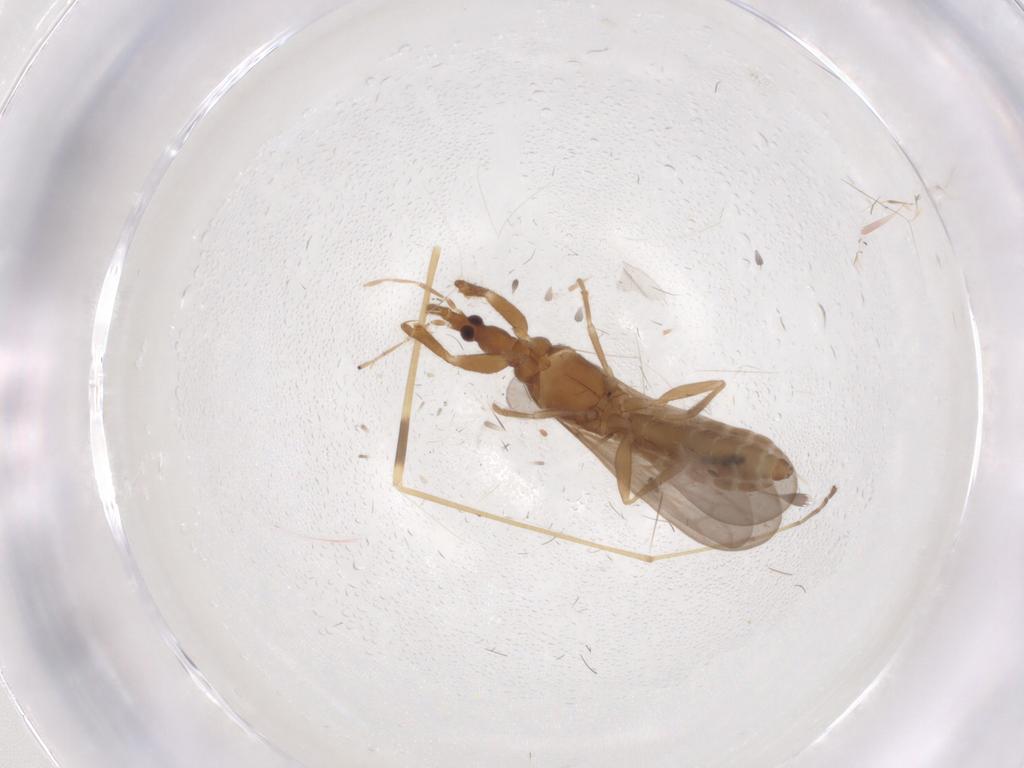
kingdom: Animalia
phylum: Arthropoda
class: Insecta
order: Hemiptera
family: Enicocephalidae
